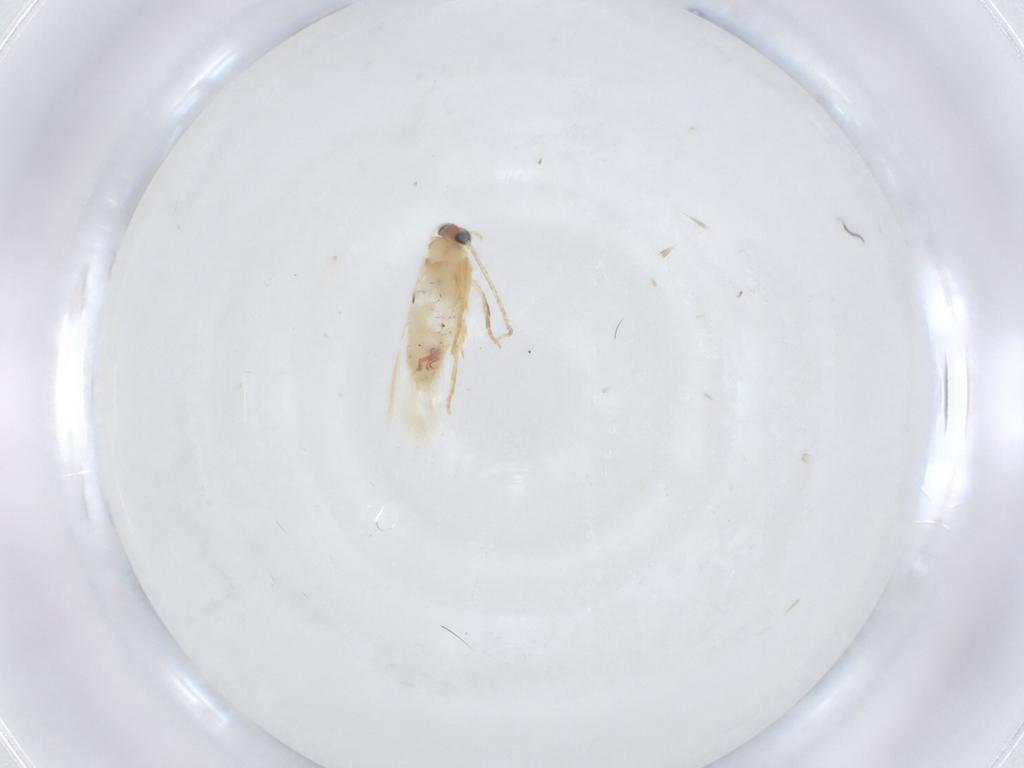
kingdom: Animalia
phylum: Arthropoda
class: Insecta
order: Lepidoptera
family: Nepticulidae
